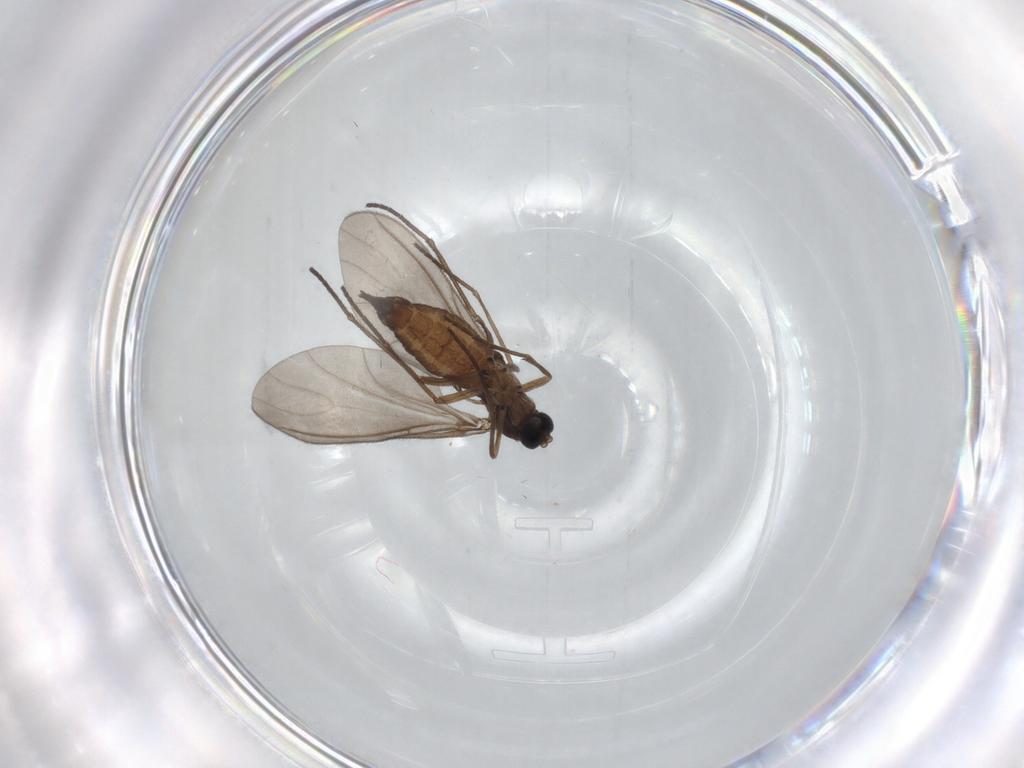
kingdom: Animalia
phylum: Arthropoda
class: Insecta
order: Diptera
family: Sciaridae
